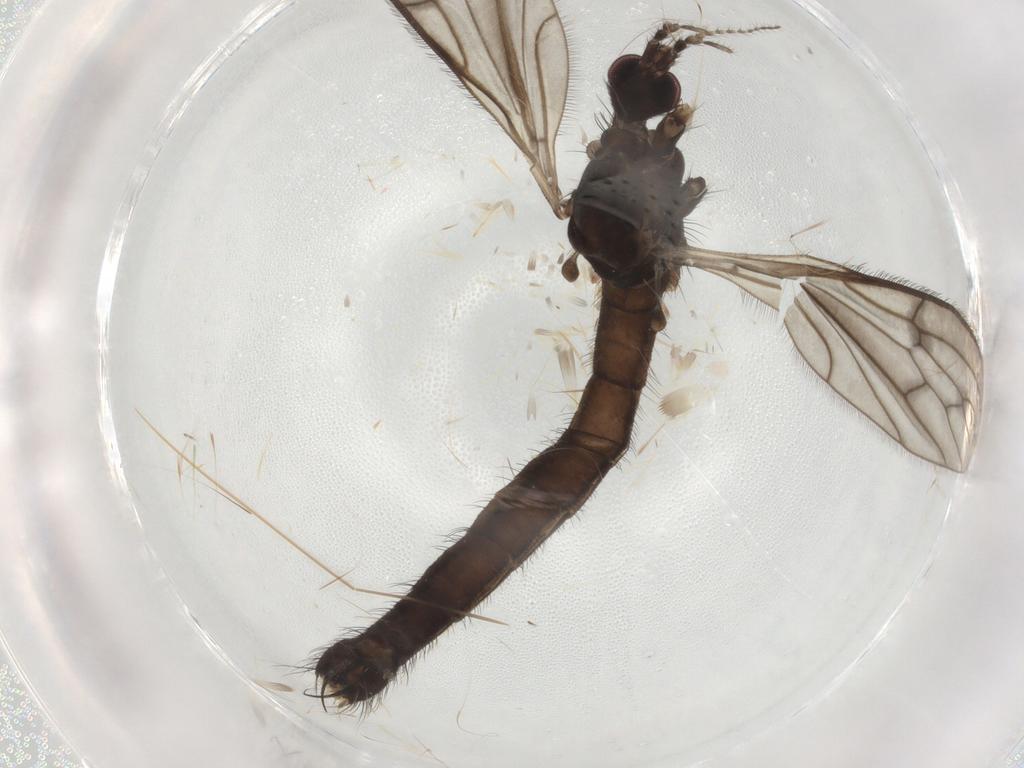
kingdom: Animalia
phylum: Arthropoda
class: Insecta
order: Diptera
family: Limoniidae
